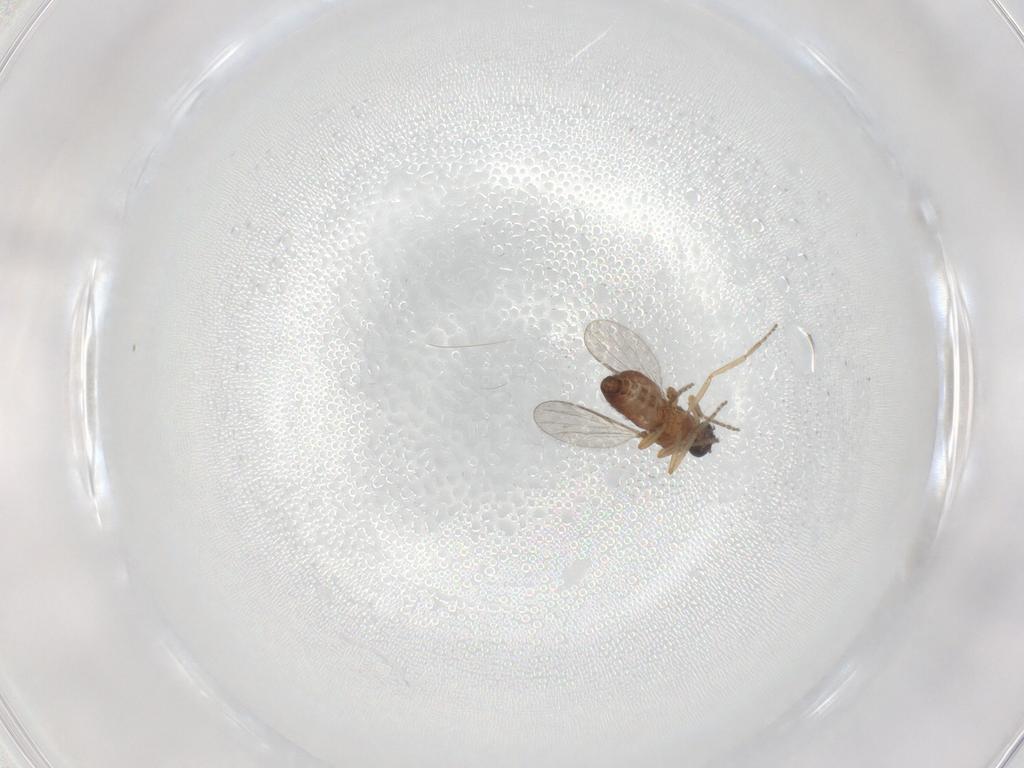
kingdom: Animalia
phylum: Arthropoda
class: Insecta
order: Diptera
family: Ceratopogonidae
